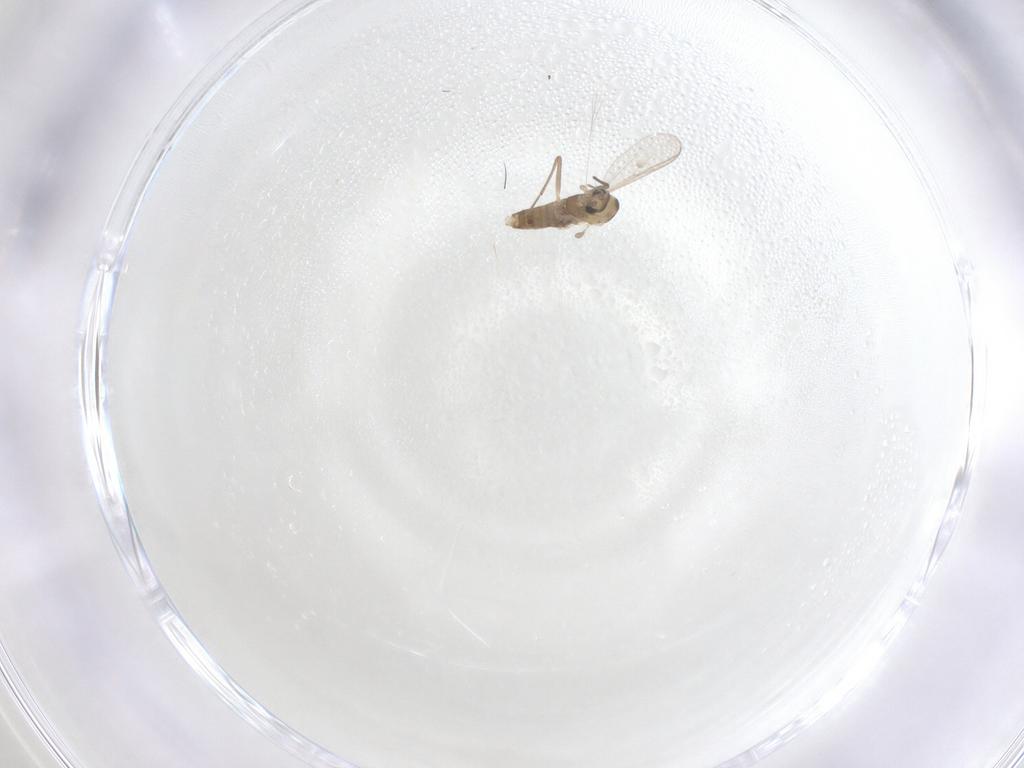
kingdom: Animalia
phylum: Arthropoda
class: Insecta
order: Diptera
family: Chironomidae
